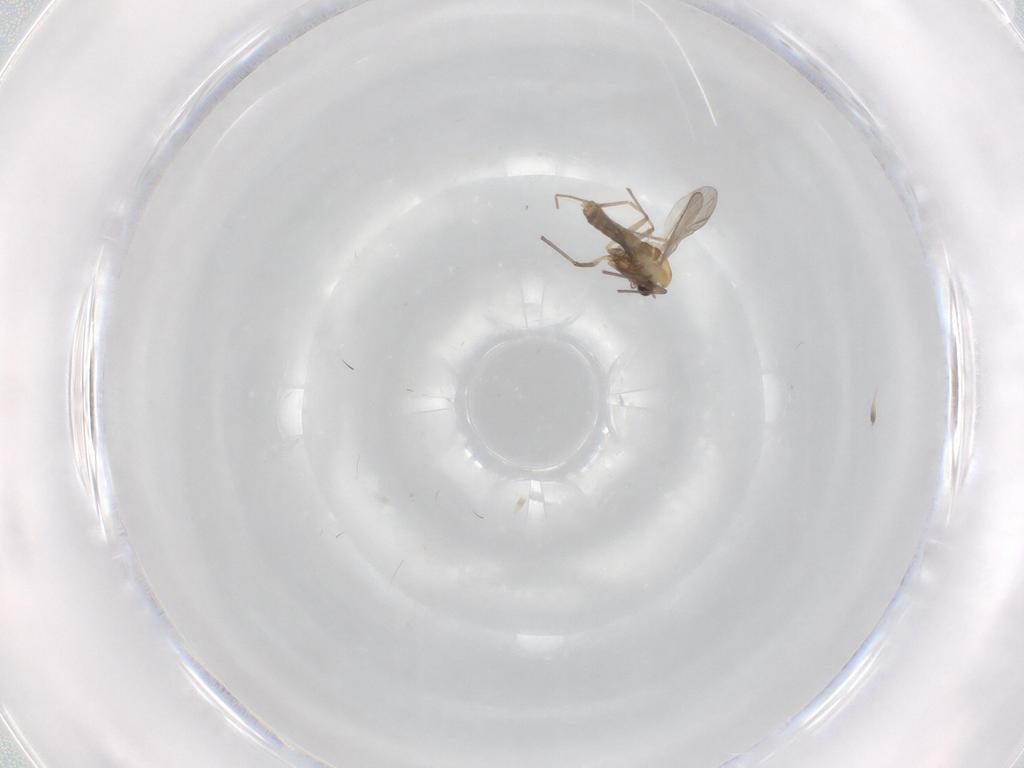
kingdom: Animalia
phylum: Arthropoda
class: Insecta
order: Diptera
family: Chironomidae
